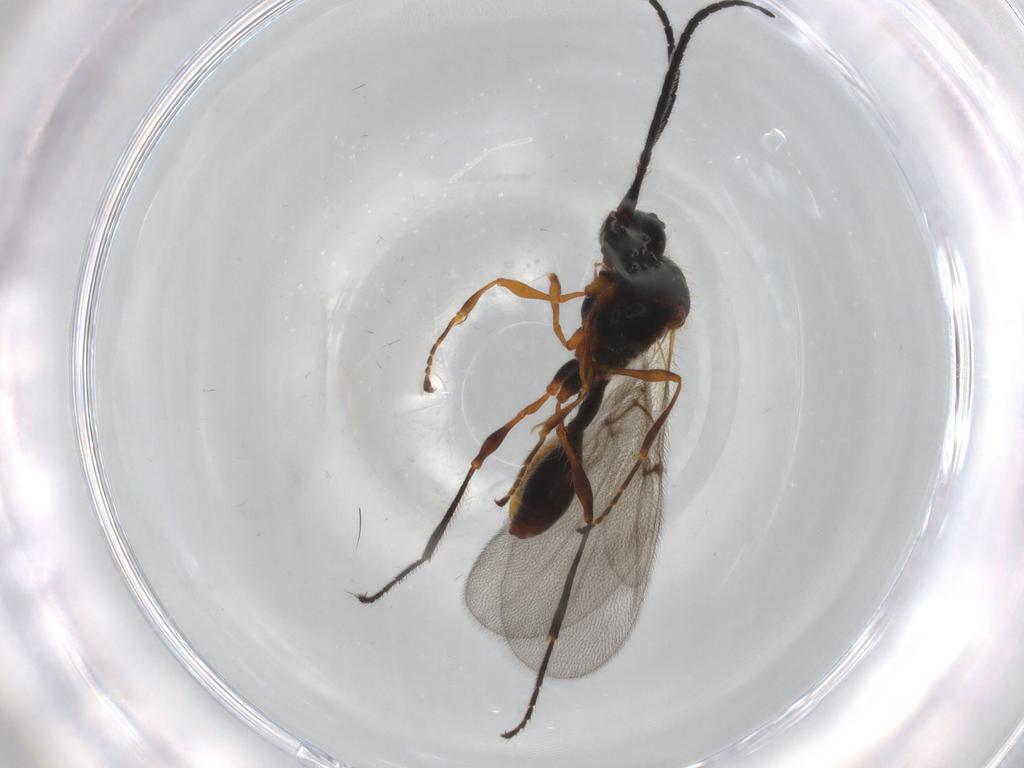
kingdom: Animalia
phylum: Arthropoda
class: Insecta
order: Hymenoptera
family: Diapriidae
